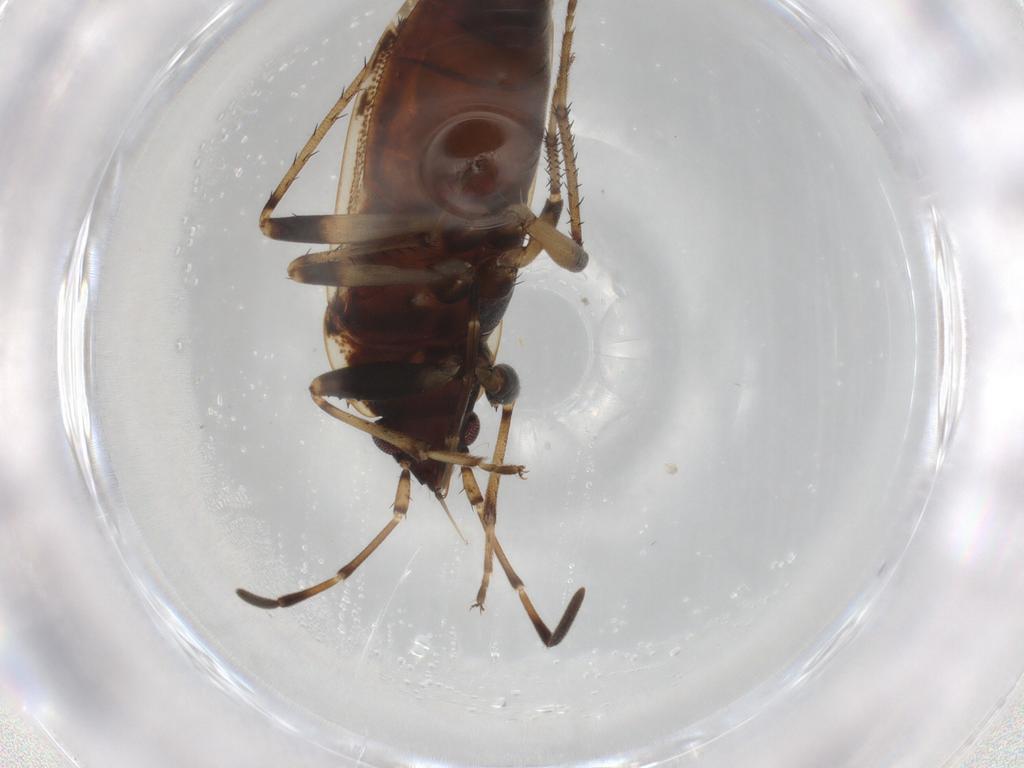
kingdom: Animalia
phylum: Arthropoda
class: Insecta
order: Hemiptera
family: Rhyparochromidae
